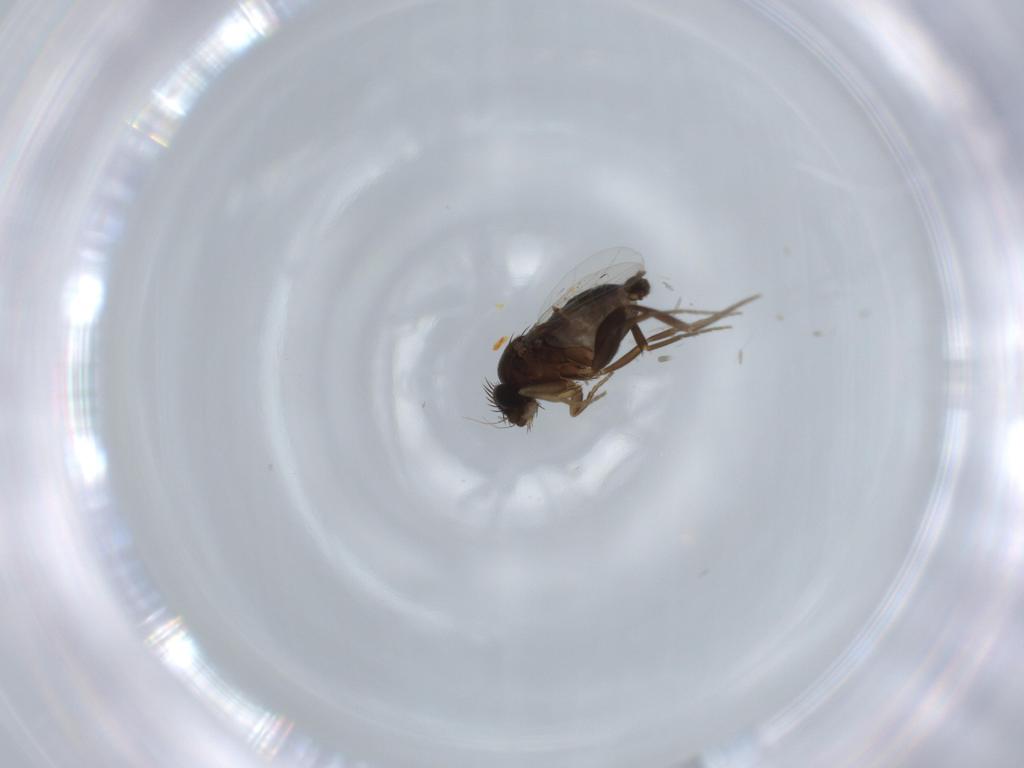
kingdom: Animalia
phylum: Arthropoda
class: Insecta
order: Diptera
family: Phoridae
